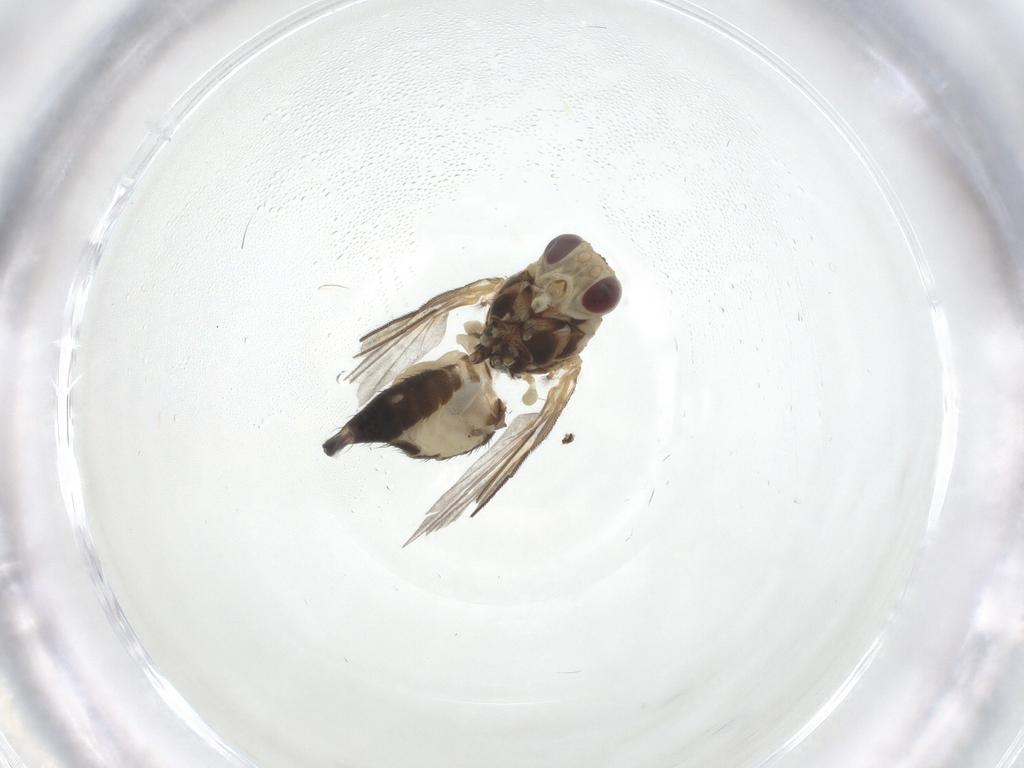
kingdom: Animalia
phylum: Arthropoda
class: Insecta
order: Diptera
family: Agromyzidae
